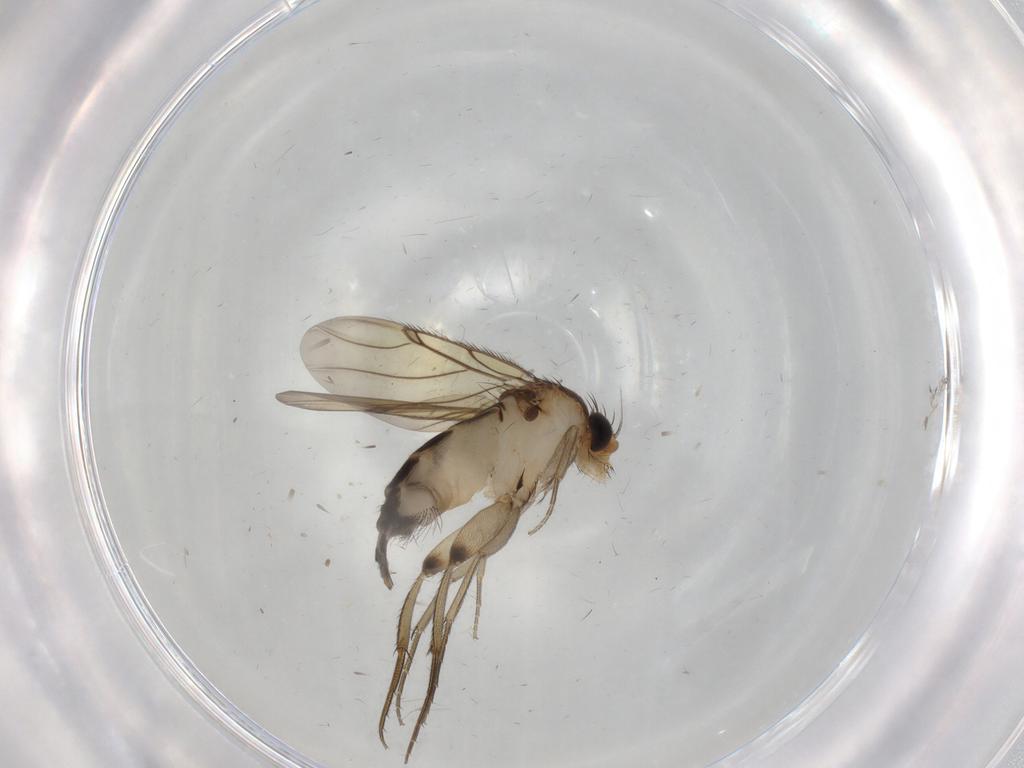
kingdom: Animalia
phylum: Arthropoda
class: Insecta
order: Diptera
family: Phoridae
